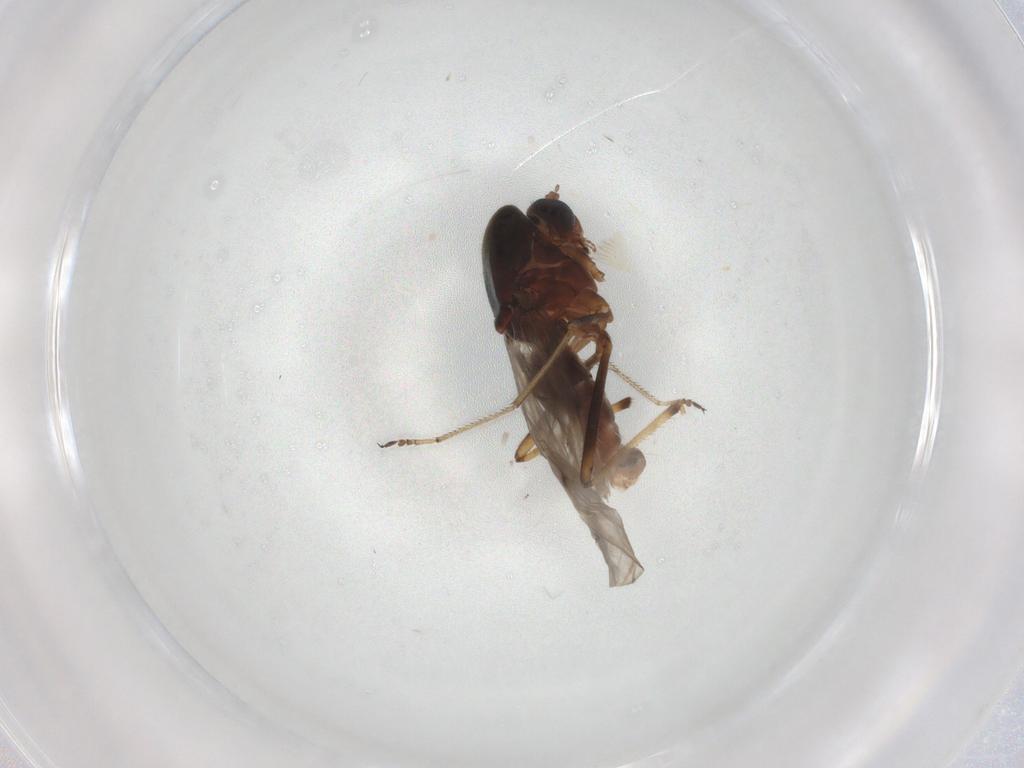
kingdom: Animalia
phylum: Arthropoda
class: Insecta
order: Diptera
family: Ceratopogonidae
